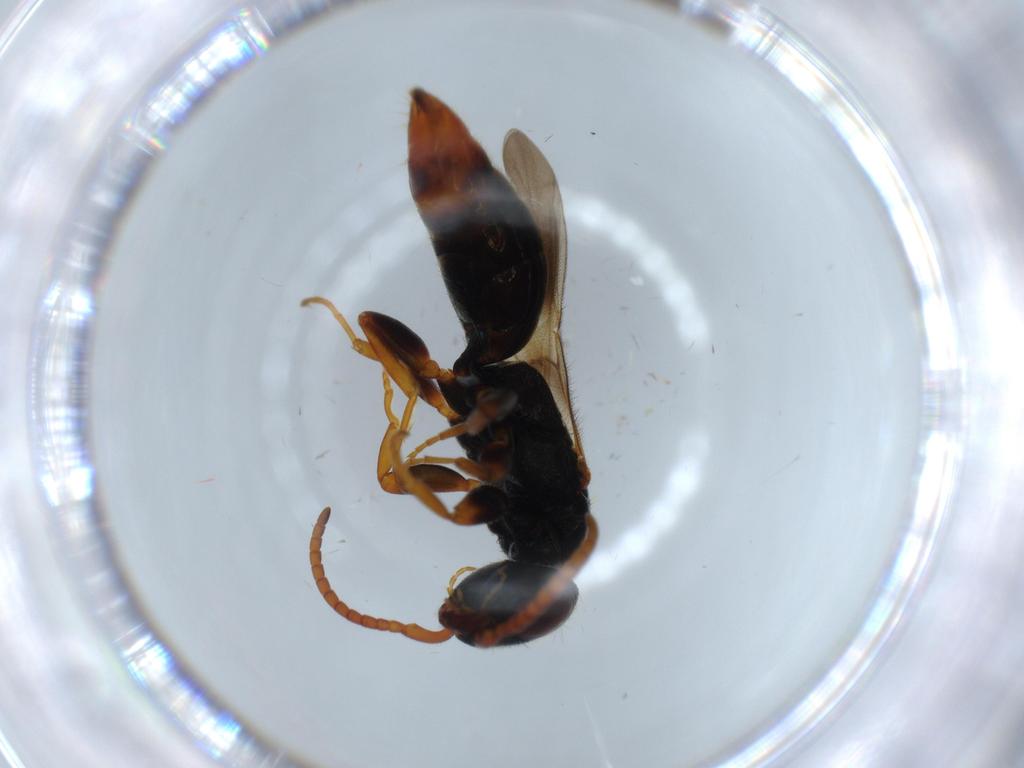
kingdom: Animalia
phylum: Arthropoda
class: Insecta
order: Hymenoptera
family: Bethylidae
